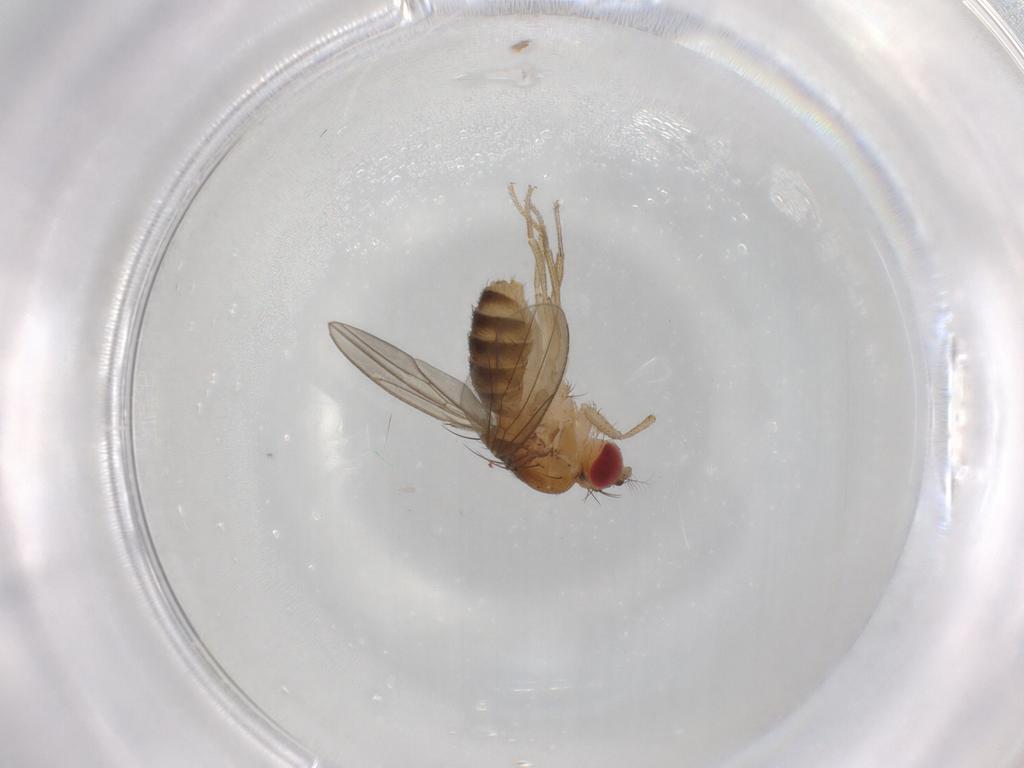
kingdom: Animalia
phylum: Arthropoda
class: Insecta
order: Diptera
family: Drosophilidae
